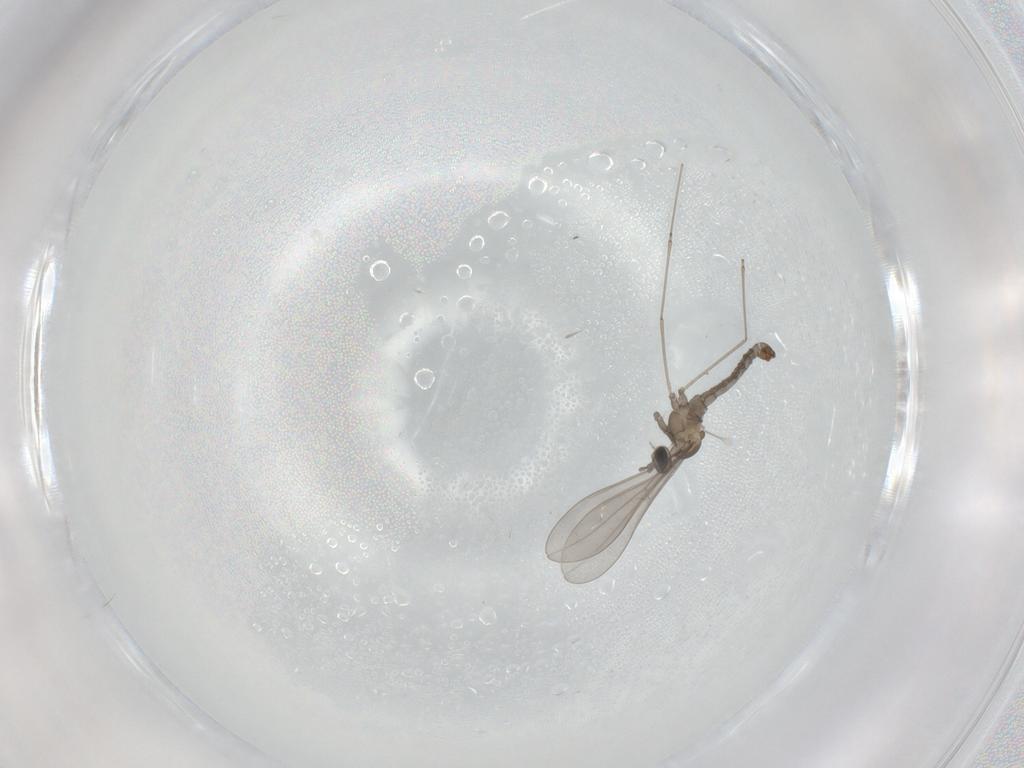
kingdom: Animalia
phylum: Arthropoda
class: Insecta
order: Diptera
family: Cecidomyiidae
